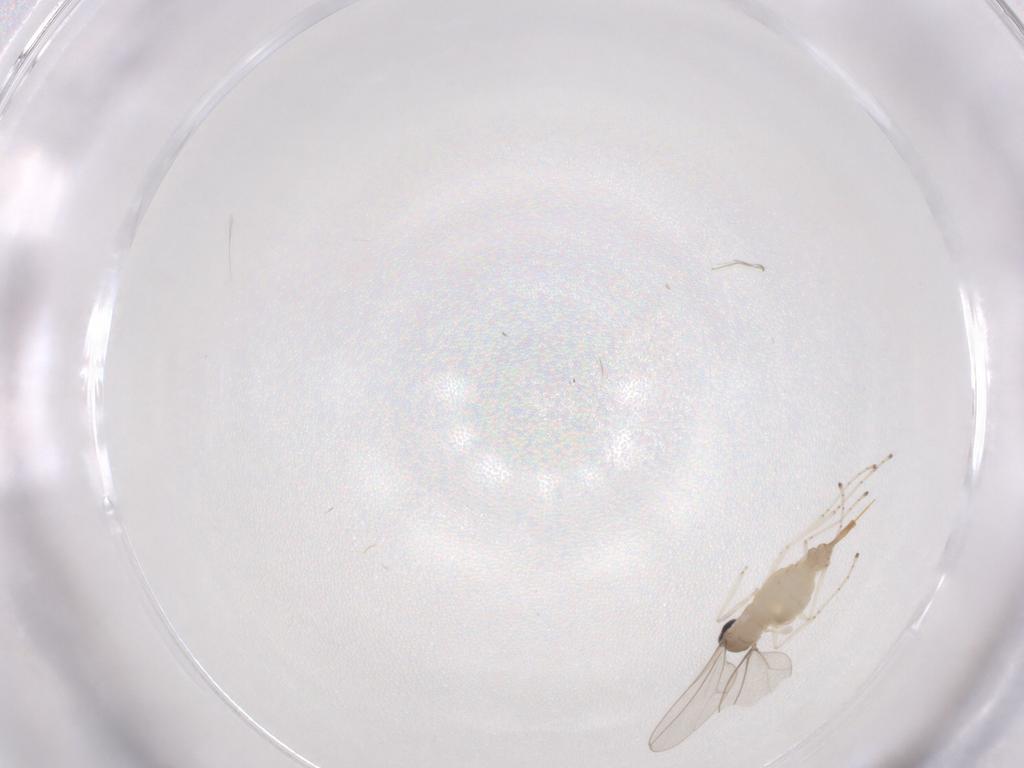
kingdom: Animalia
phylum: Arthropoda
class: Insecta
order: Diptera
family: Cecidomyiidae
